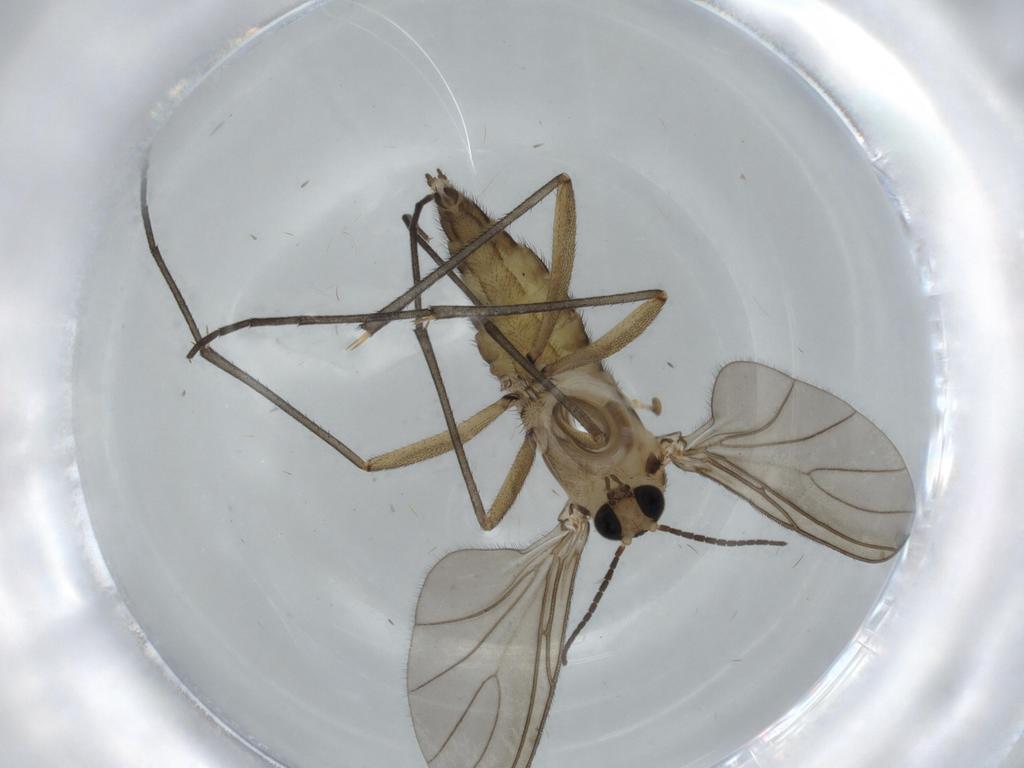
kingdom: Animalia
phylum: Arthropoda
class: Insecta
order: Diptera
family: Sciaridae
